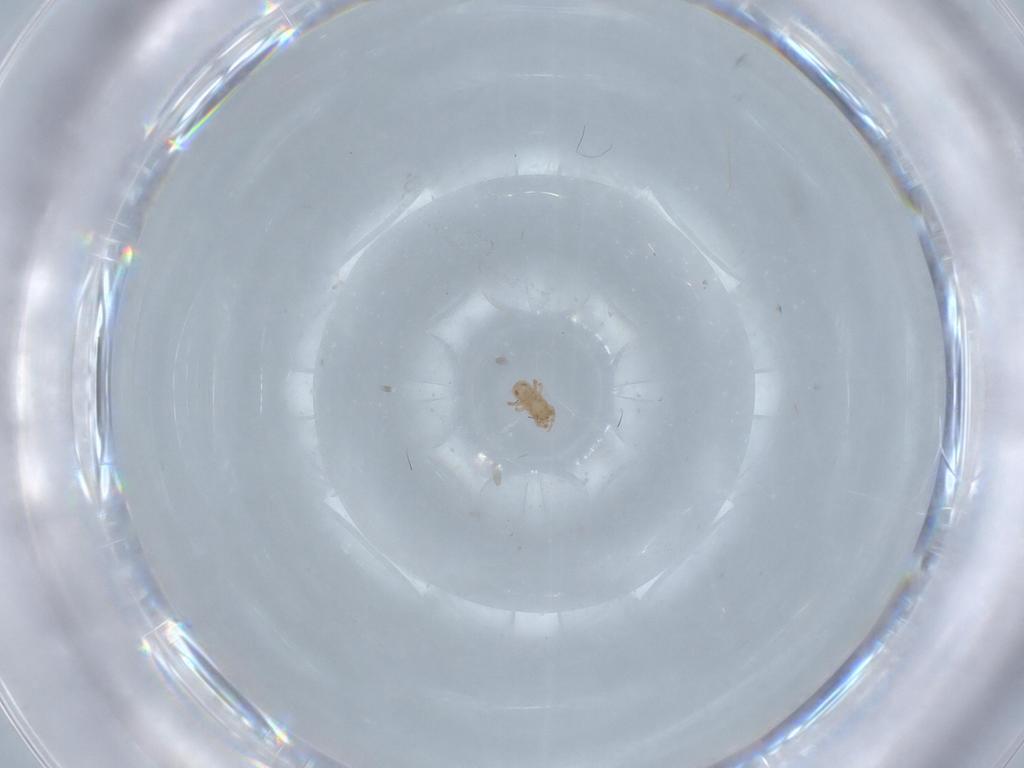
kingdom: Animalia
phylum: Arthropoda
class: Arachnida
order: Mesostigmata
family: Digamasellidae
